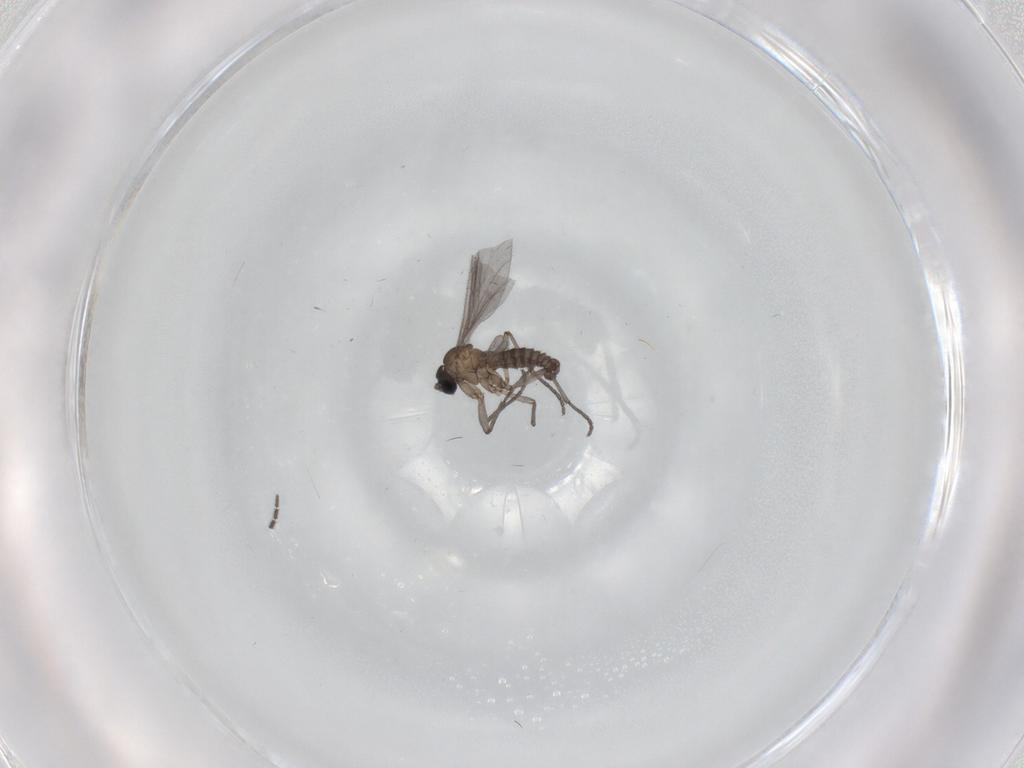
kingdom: Animalia
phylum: Arthropoda
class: Insecta
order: Diptera
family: Sciaridae
